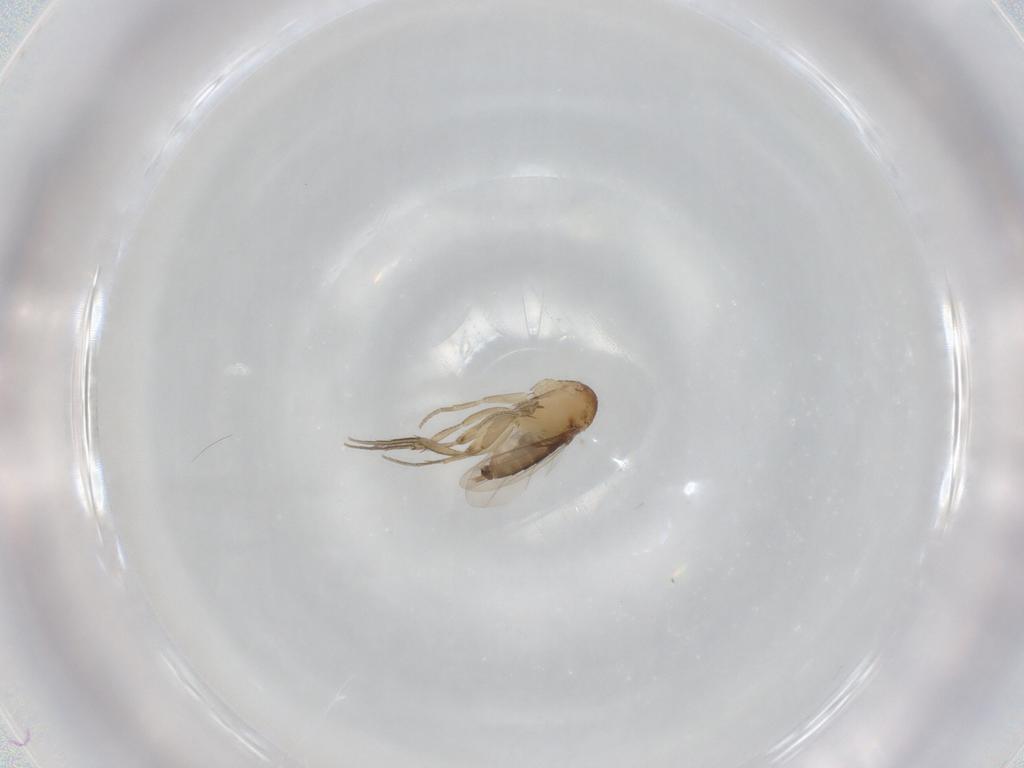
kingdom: Animalia
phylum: Arthropoda
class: Insecta
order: Diptera
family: Phoridae
